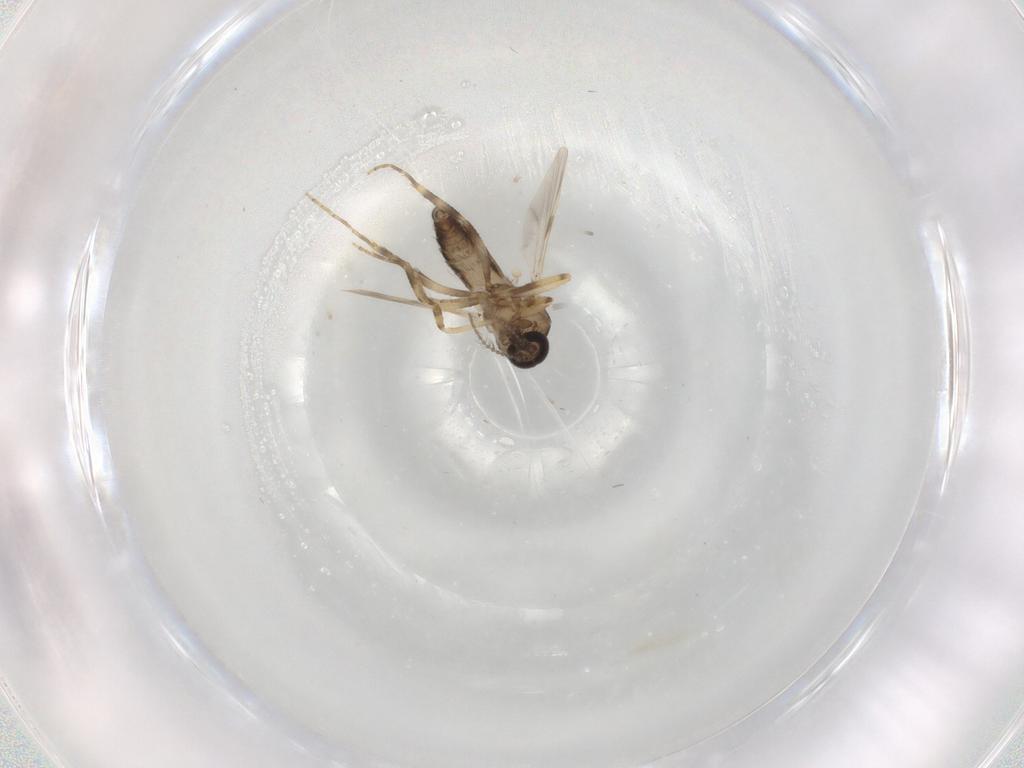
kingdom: Animalia
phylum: Arthropoda
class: Insecta
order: Diptera
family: Ceratopogonidae
